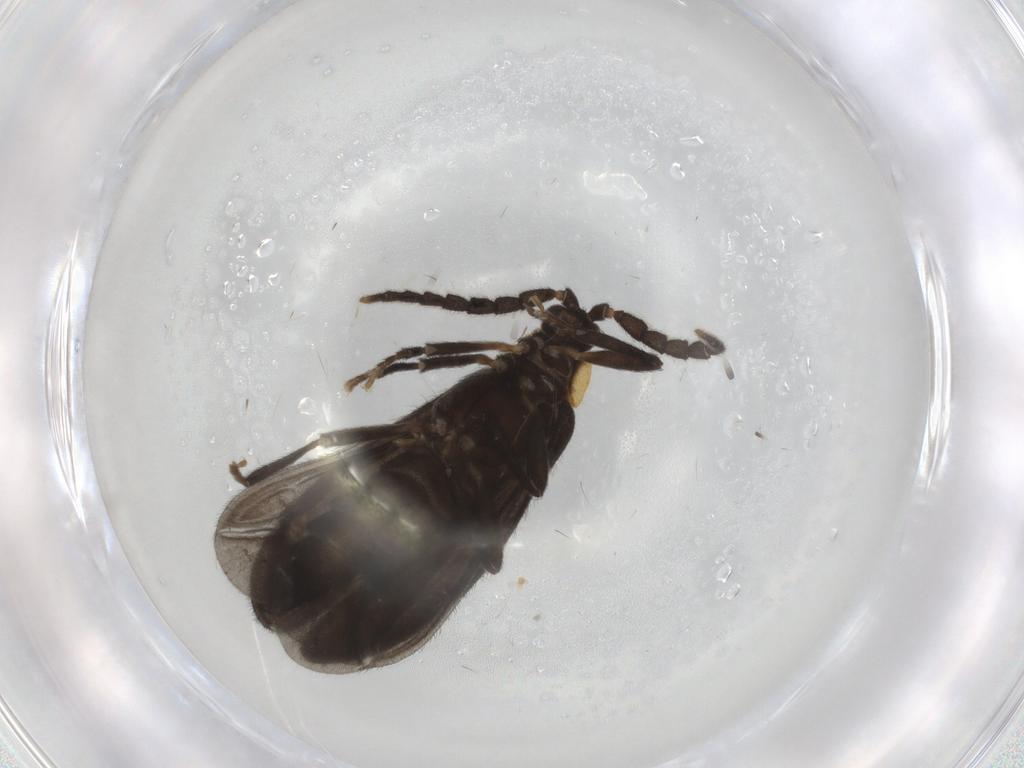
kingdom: Animalia
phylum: Arthropoda
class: Insecta
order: Coleoptera
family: Lycidae
